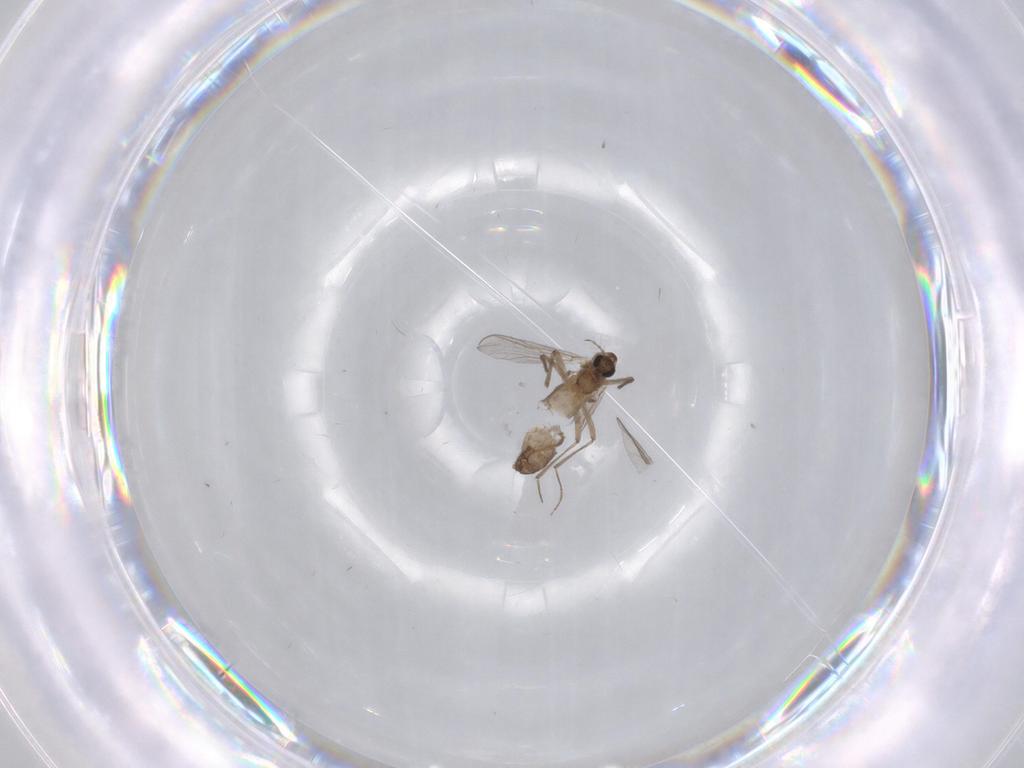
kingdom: Animalia
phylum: Arthropoda
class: Insecta
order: Diptera
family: Chironomidae
